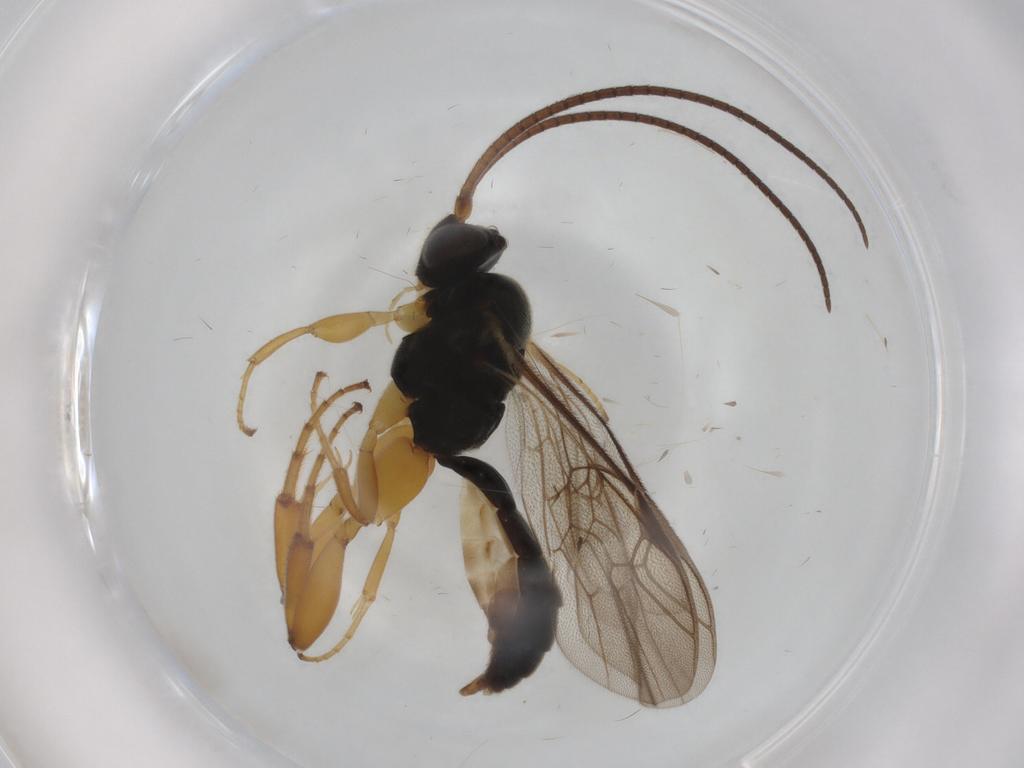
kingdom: Animalia
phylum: Arthropoda
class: Insecta
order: Hymenoptera
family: Ichneumonidae
